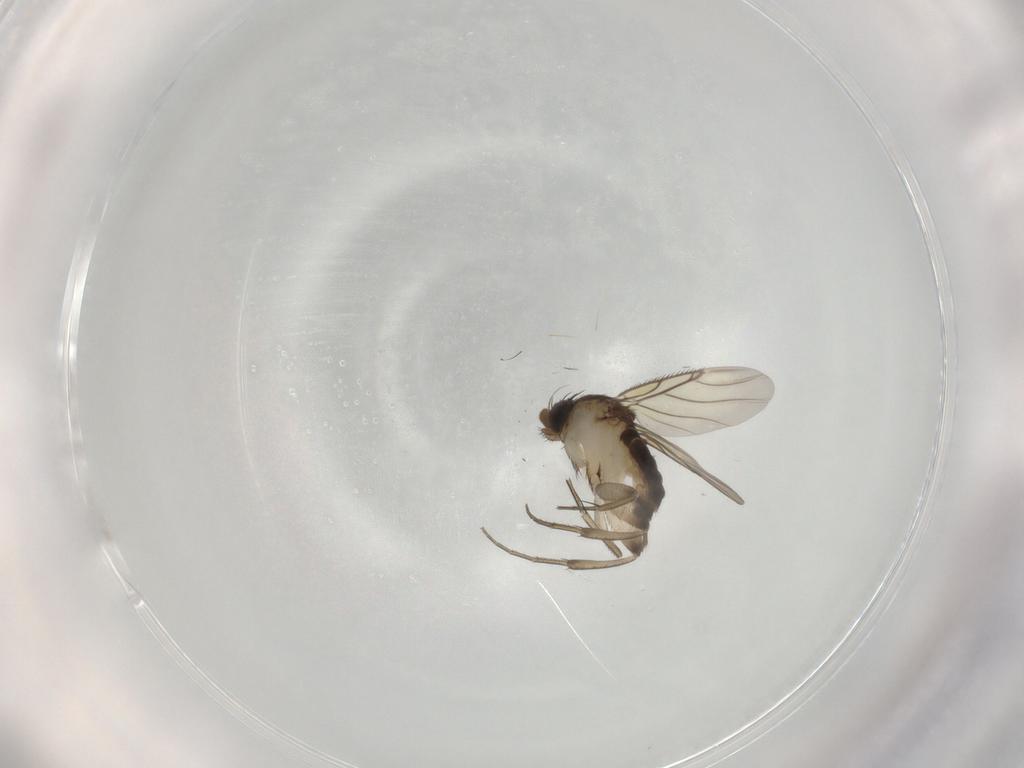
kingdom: Animalia
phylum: Arthropoda
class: Insecta
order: Diptera
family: Phoridae
